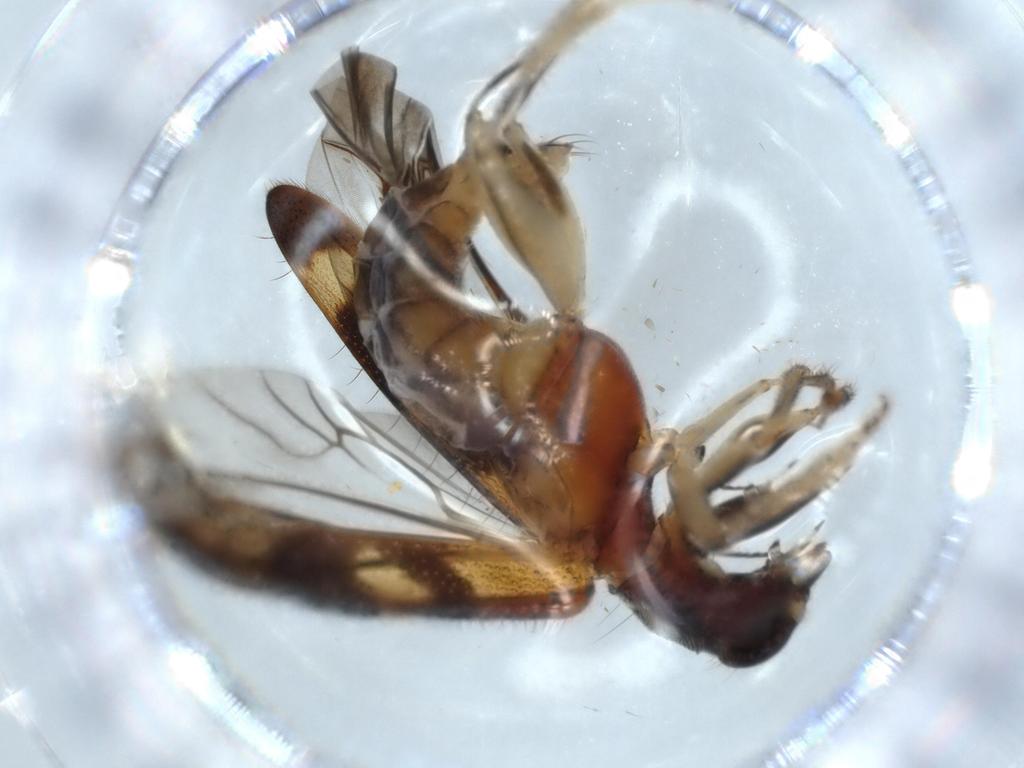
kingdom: Animalia
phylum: Arthropoda
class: Insecta
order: Coleoptera
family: Cleridae
